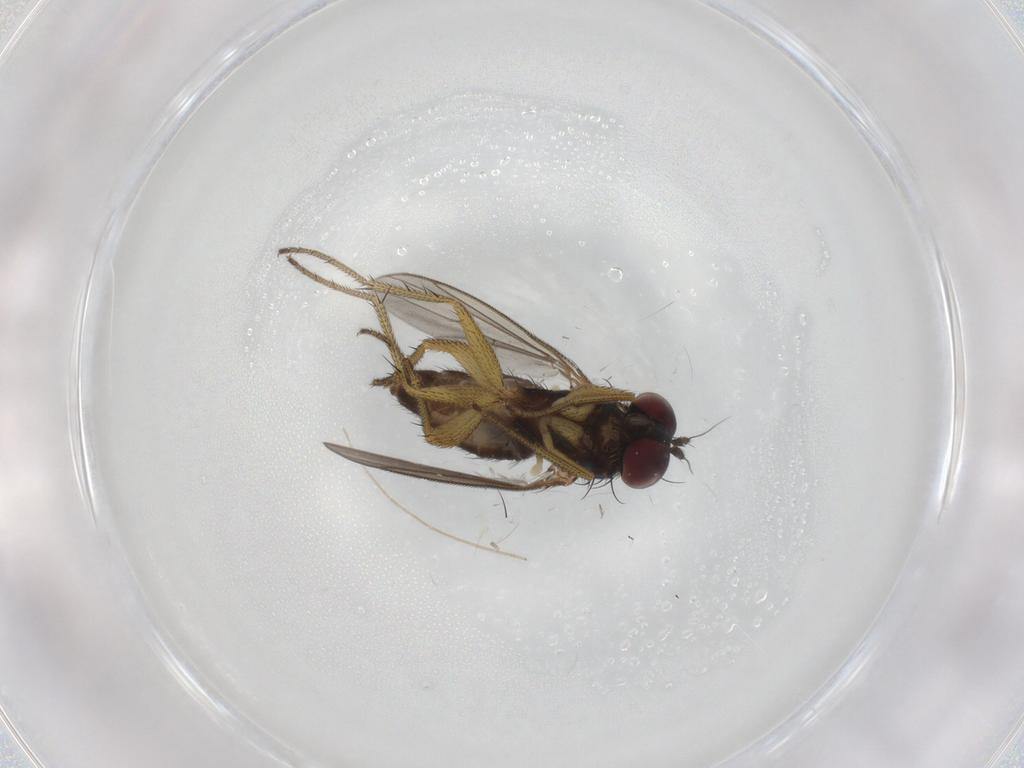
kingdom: Animalia
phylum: Arthropoda
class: Insecta
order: Diptera
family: Dolichopodidae
